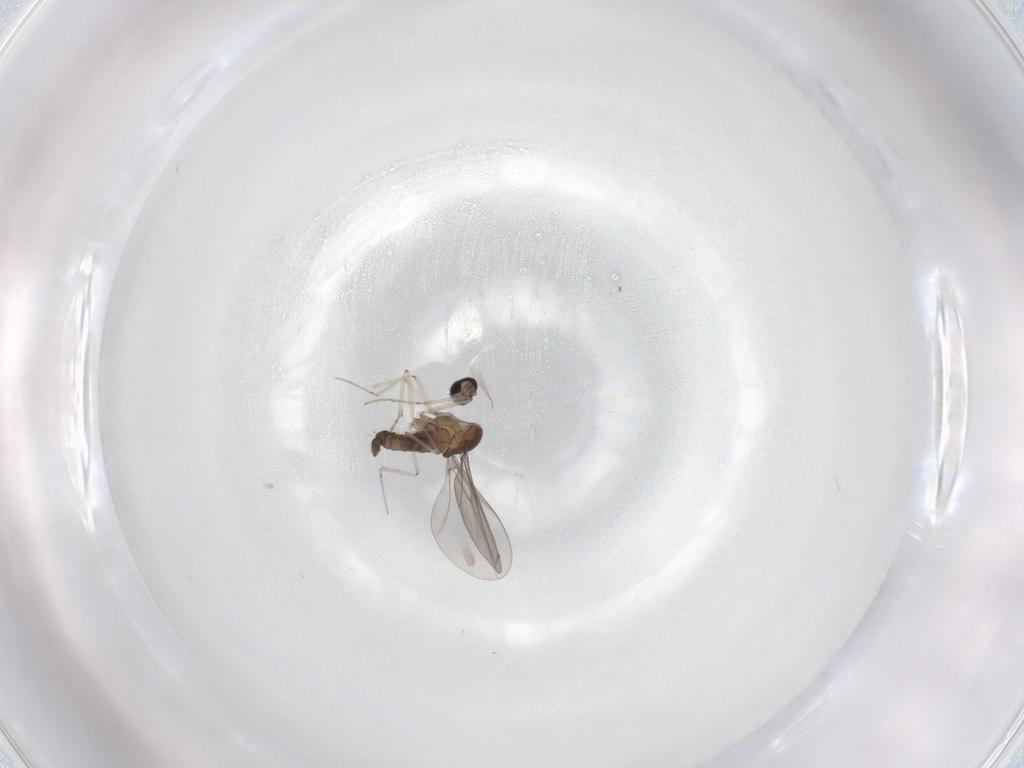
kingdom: Animalia
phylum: Arthropoda
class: Insecta
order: Diptera
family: Ceratopogonidae
